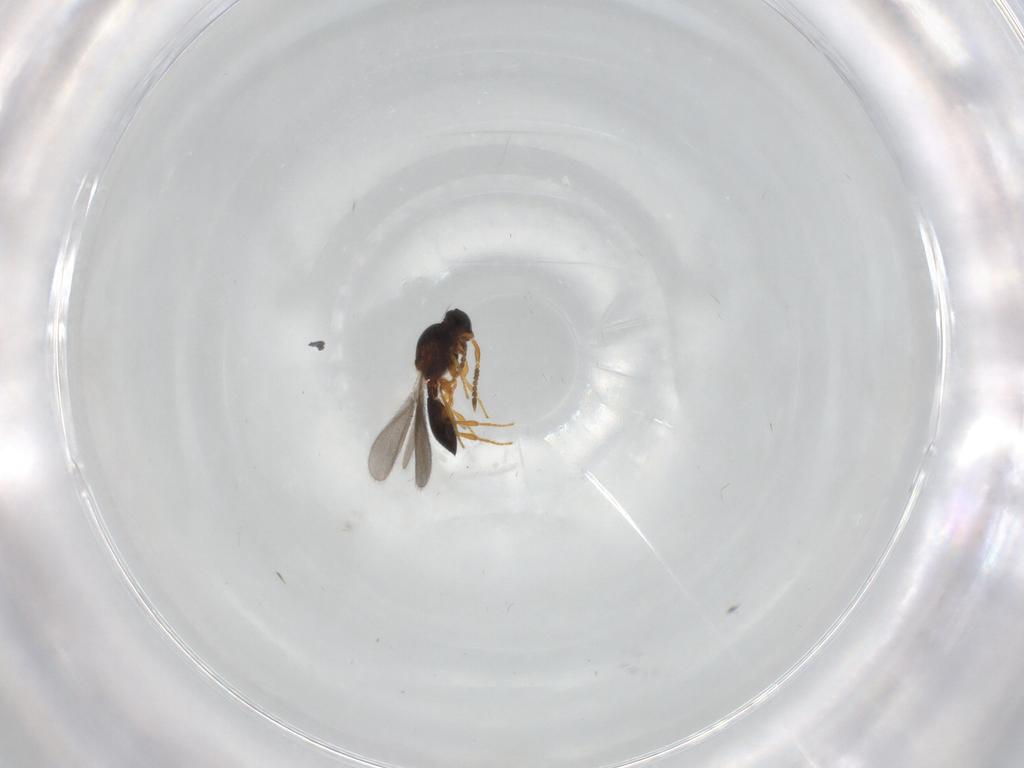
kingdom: Animalia
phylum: Arthropoda
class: Insecta
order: Hymenoptera
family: Platygastridae
